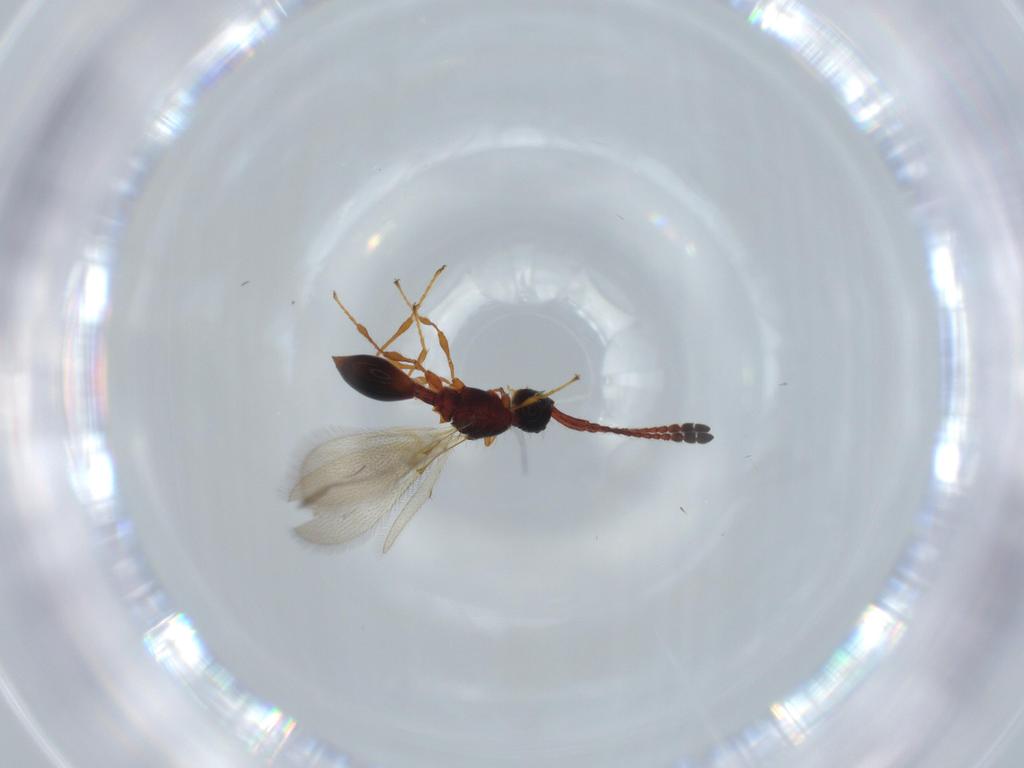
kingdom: Animalia
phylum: Arthropoda
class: Insecta
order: Hymenoptera
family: Diapriidae
